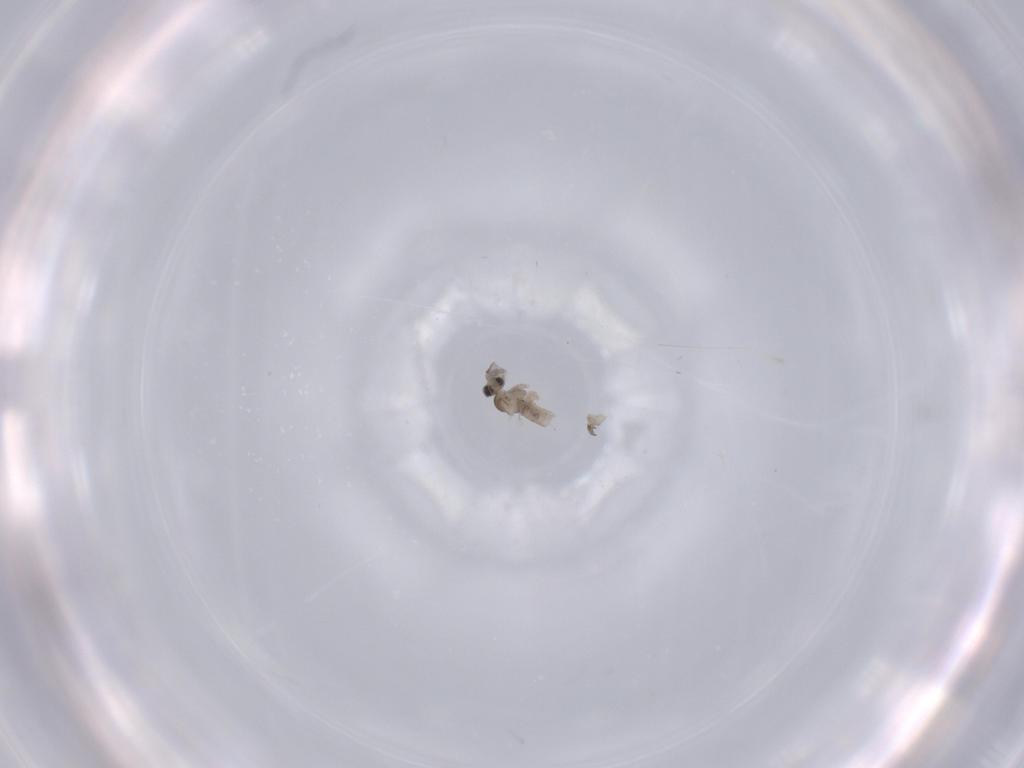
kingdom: Animalia
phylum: Arthropoda
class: Insecta
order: Diptera
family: Cecidomyiidae
